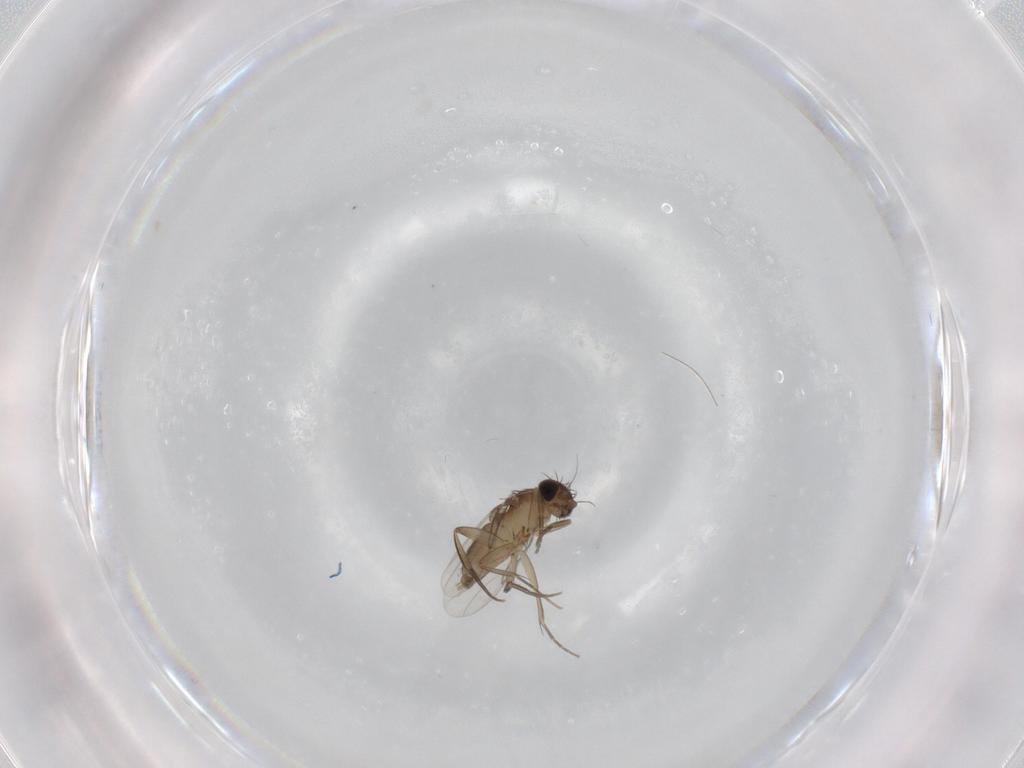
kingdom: Animalia
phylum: Arthropoda
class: Insecta
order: Diptera
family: Phoridae
